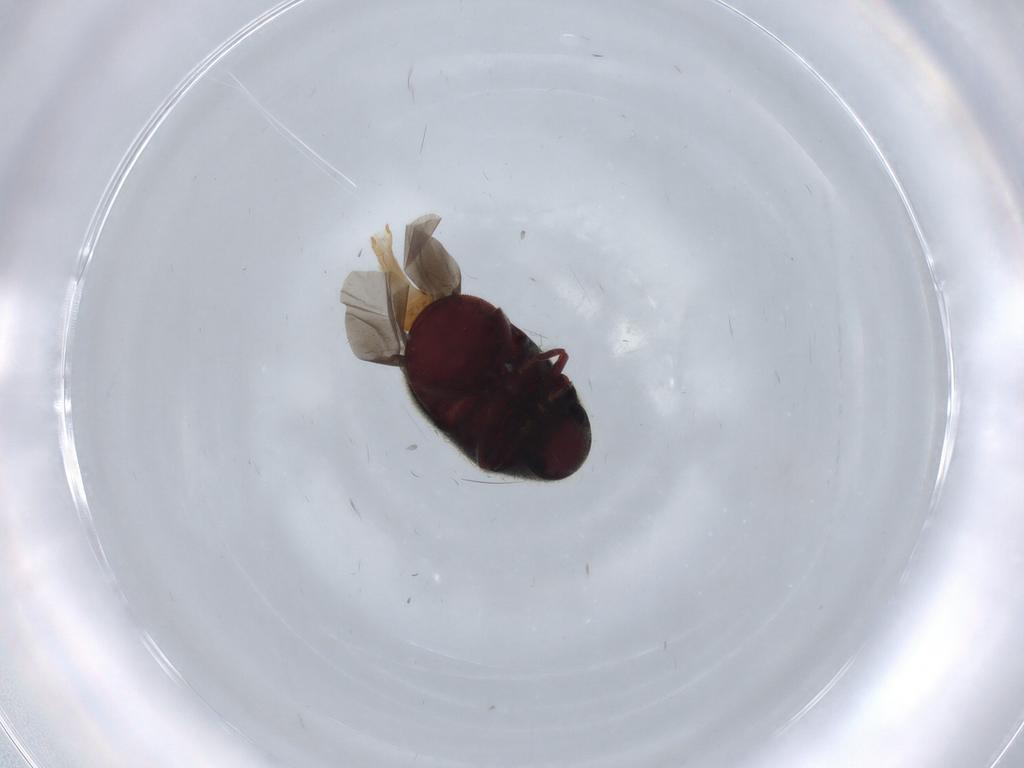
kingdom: Animalia
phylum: Arthropoda
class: Insecta
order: Coleoptera
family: Ptinidae
